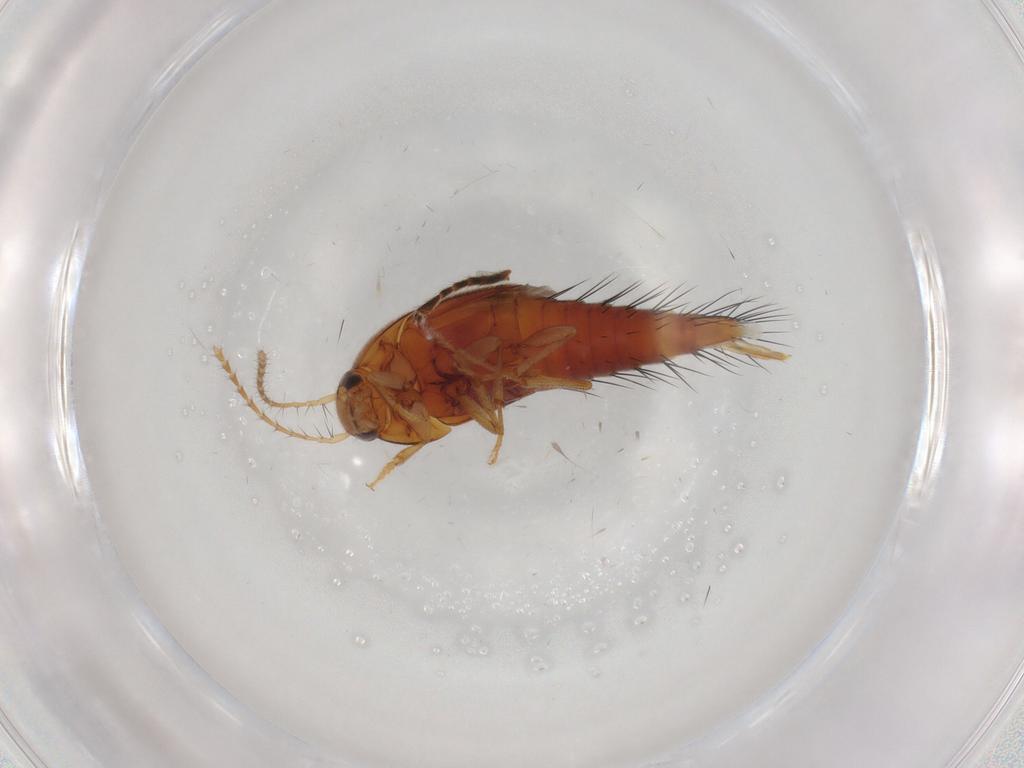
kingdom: Animalia
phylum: Arthropoda
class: Insecta
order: Coleoptera
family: Staphylinidae
